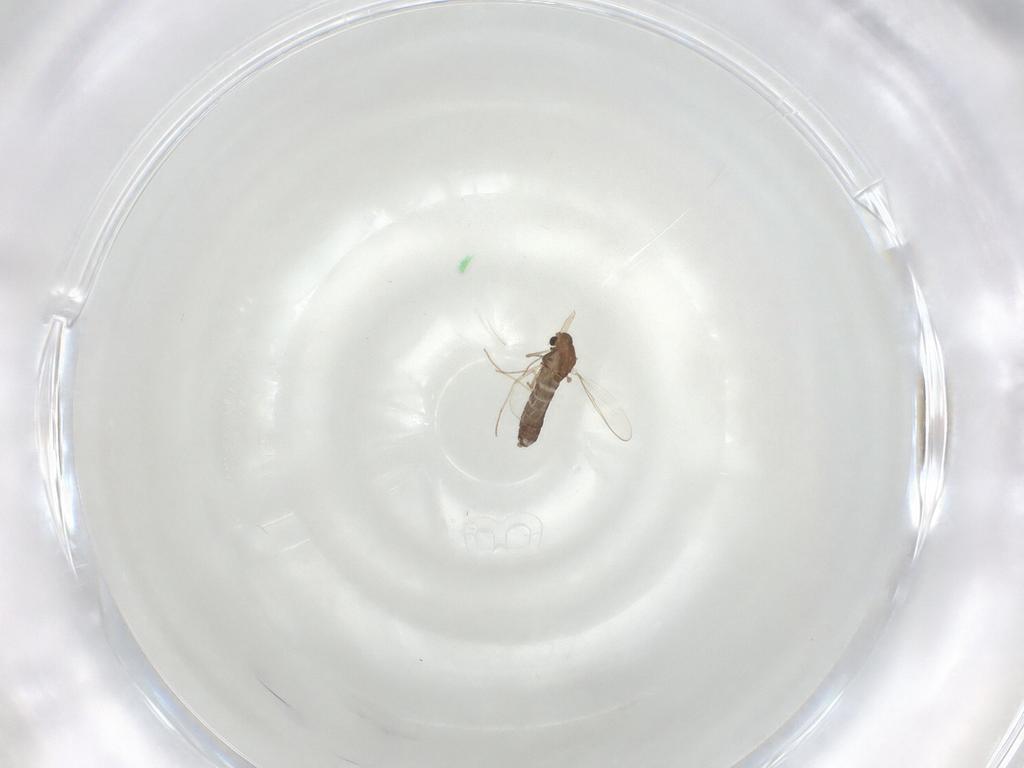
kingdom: Animalia
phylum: Arthropoda
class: Insecta
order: Diptera
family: Psychodidae
